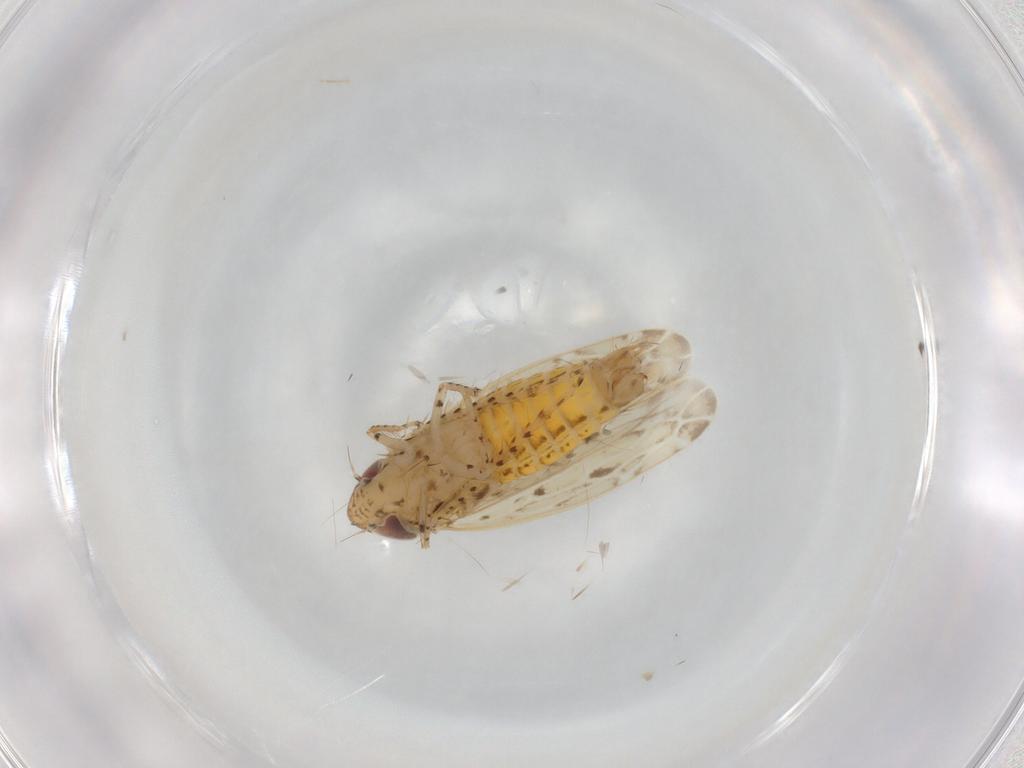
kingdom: Animalia
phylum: Arthropoda
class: Insecta
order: Hemiptera
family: Cicadellidae
